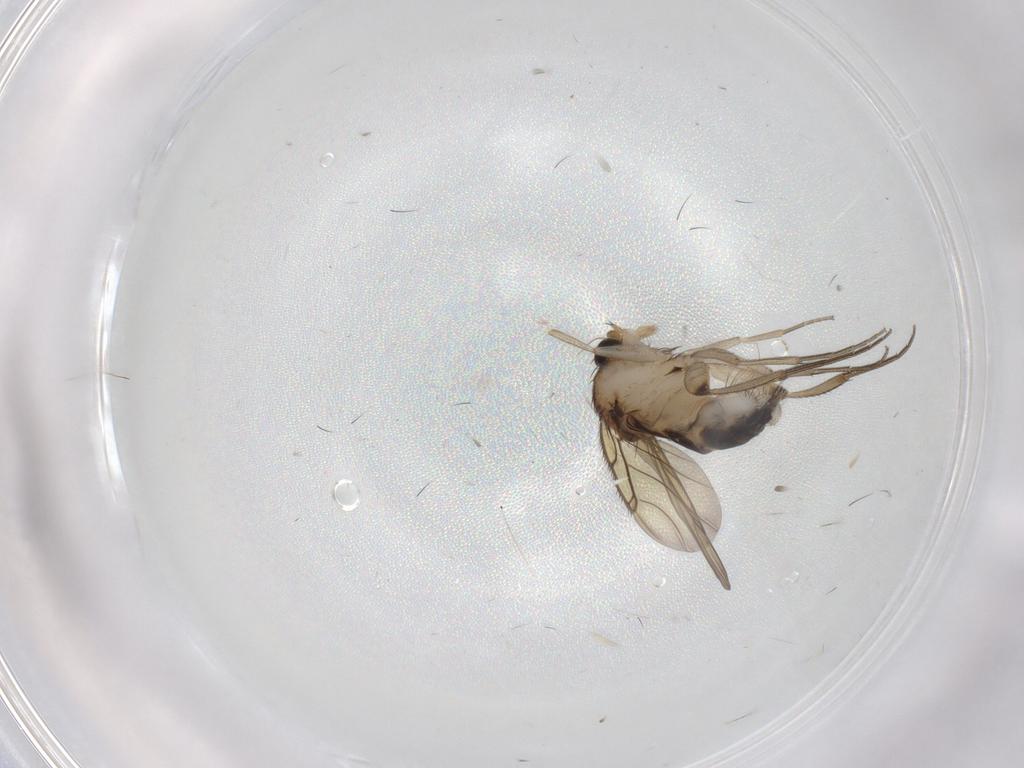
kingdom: Animalia
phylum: Arthropoda
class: Insecta
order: Diptera
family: Phoridae
